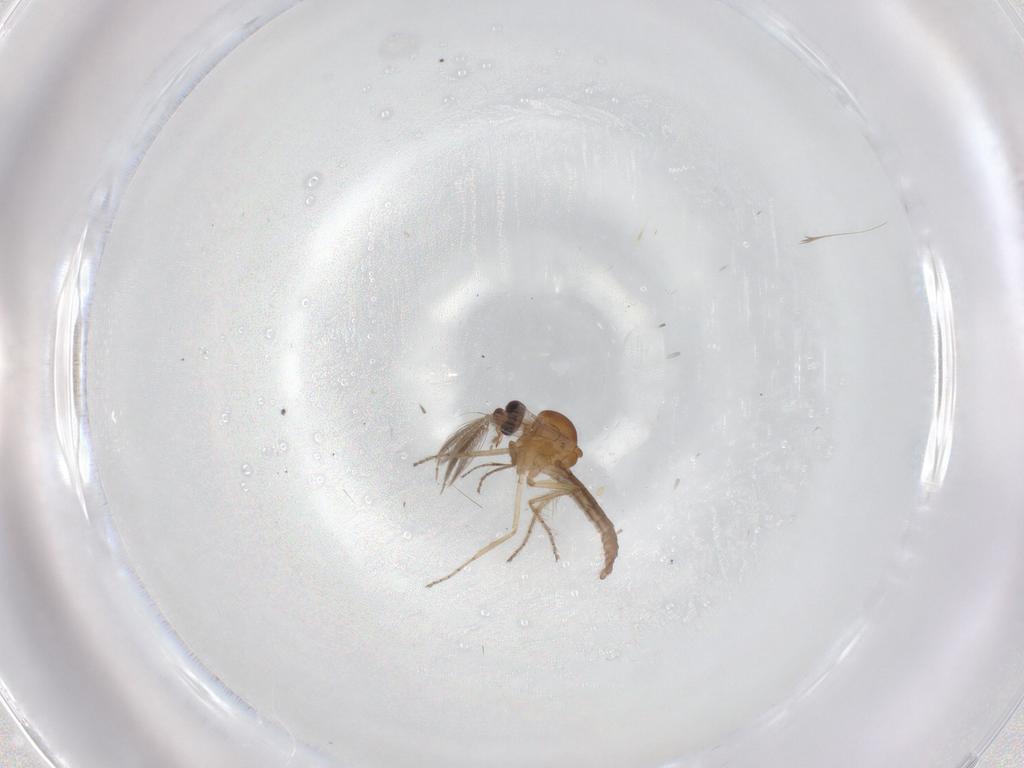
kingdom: Animalia
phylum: Arthropoda
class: Insecta
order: Diptera
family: Ceratopogonidae
